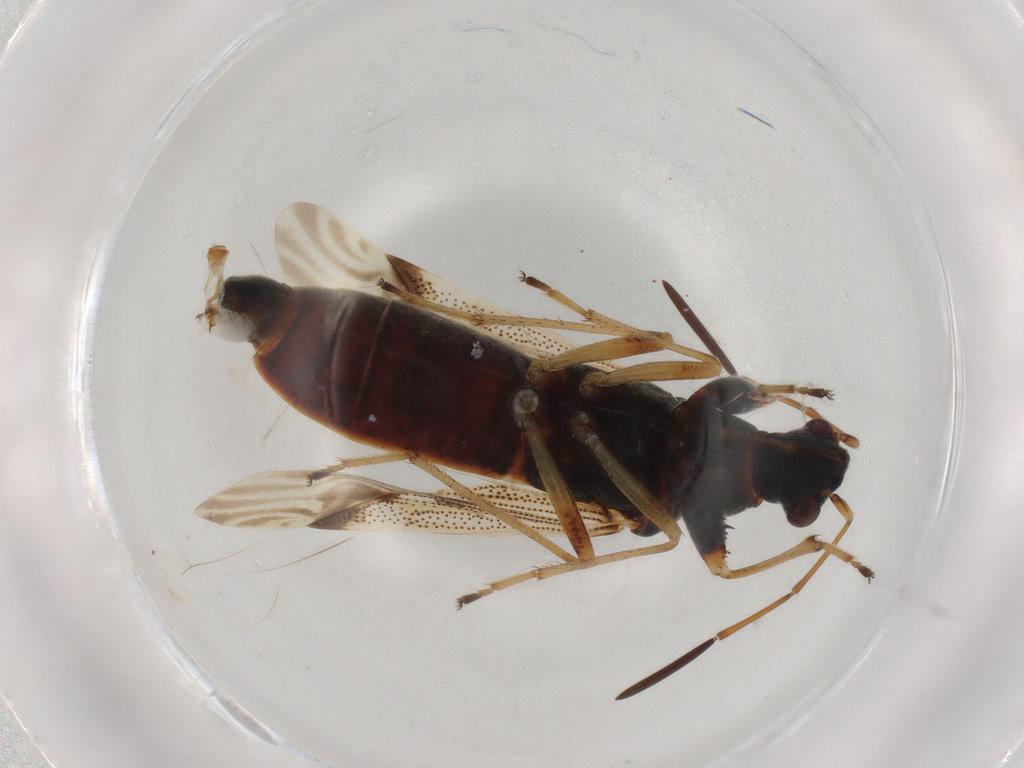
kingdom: Animalia
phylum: Arthropoda
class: Insecta
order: Hemiptera
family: Rhyparochromidae
